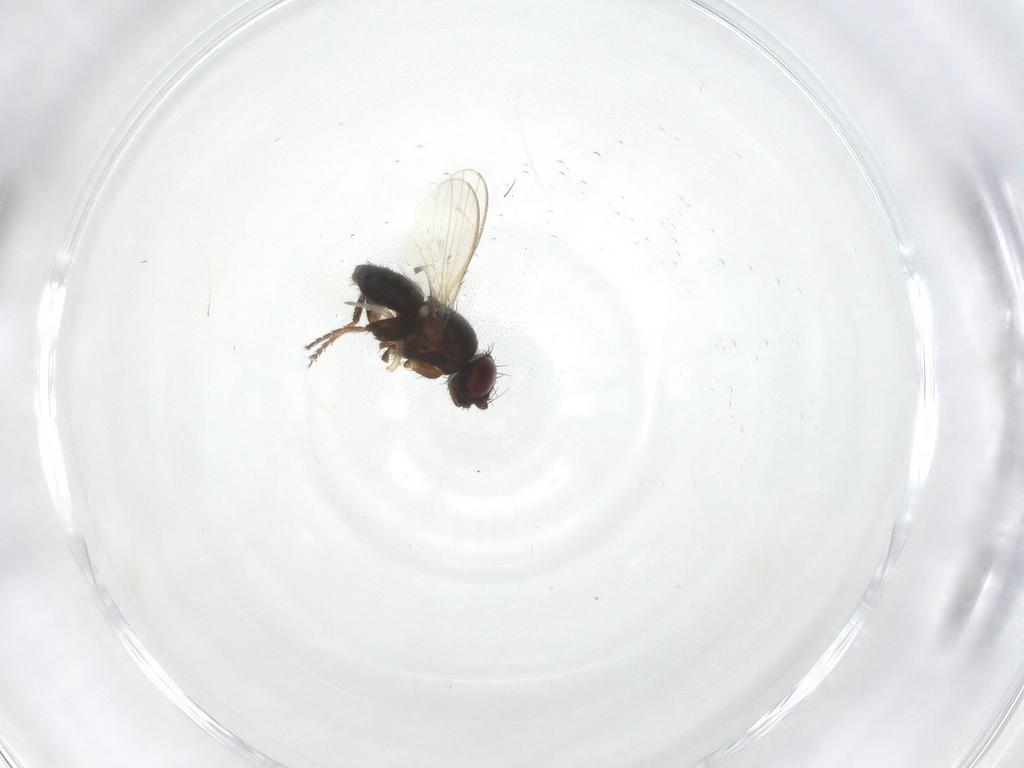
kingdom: Animalia
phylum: Arthropoda
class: Insecta
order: Diptera
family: Milichiidae
